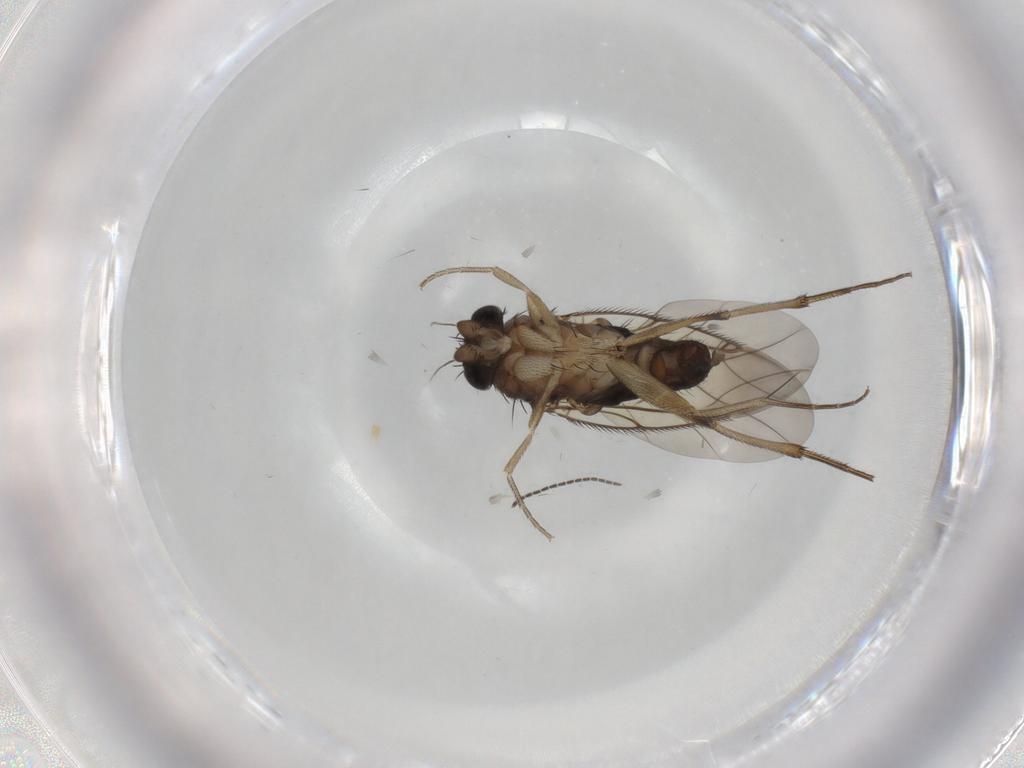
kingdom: Animalia
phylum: Arthropoda
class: Insecta
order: Diptera
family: Phoridae
